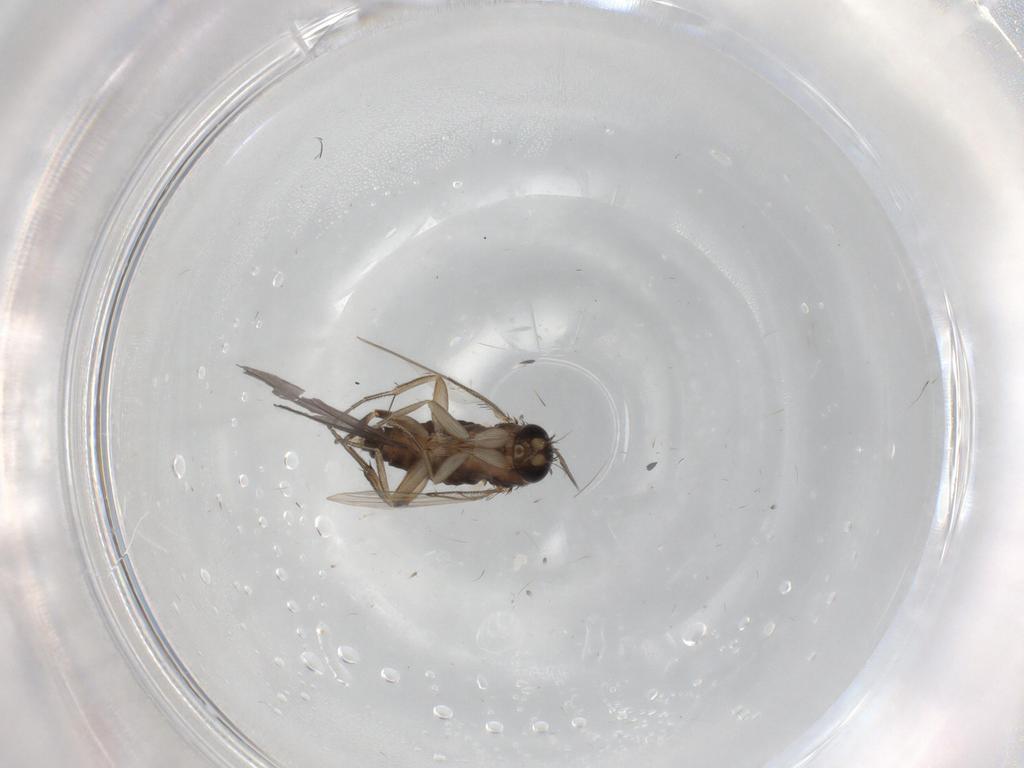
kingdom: Animalia
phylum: Arthropoda
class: Insecta
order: Diptera
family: Phoridae
